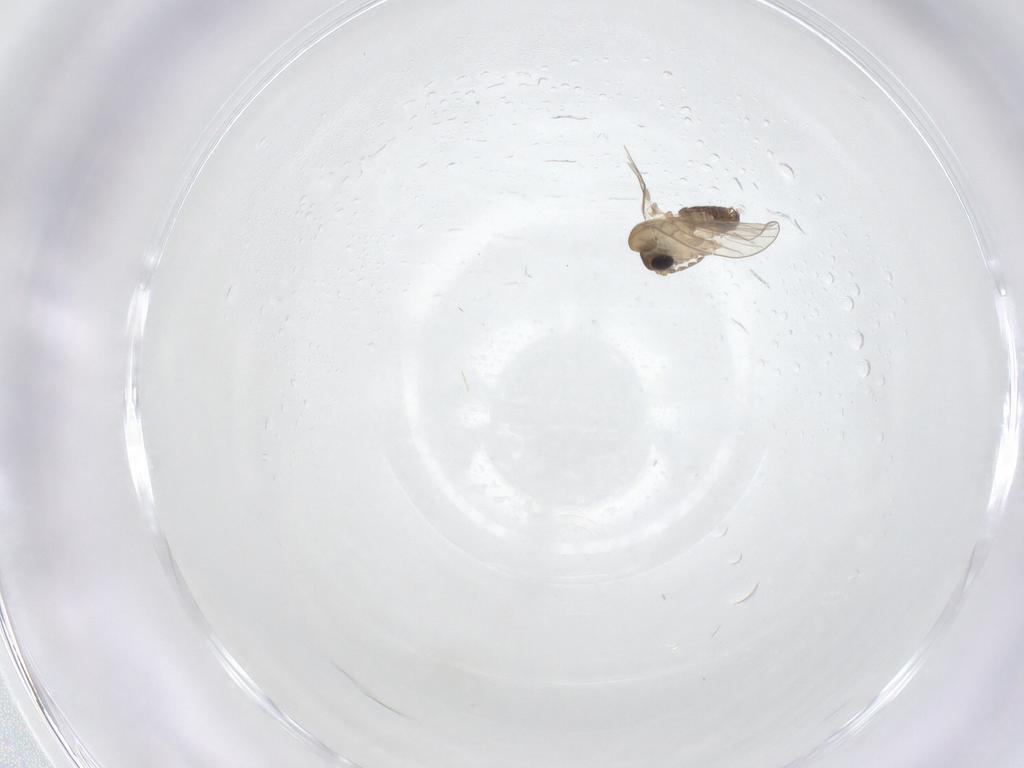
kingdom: Animalia
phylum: Arthropoda
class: Insecta
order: Diptera
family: Psychodidae
